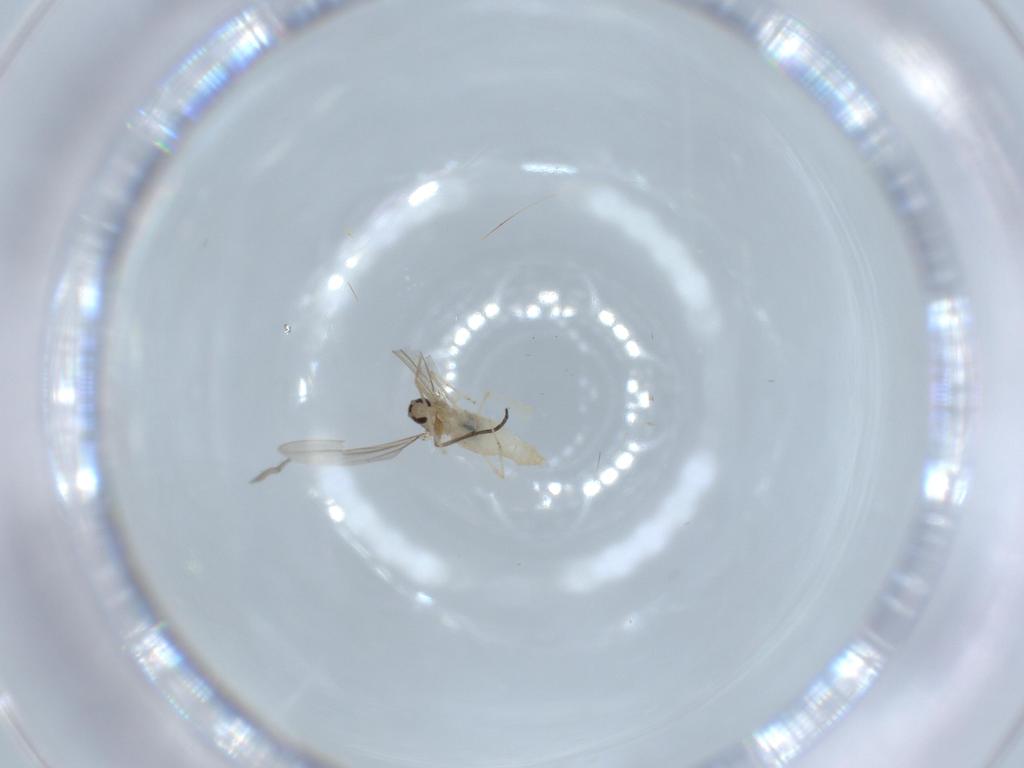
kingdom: Animalia
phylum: Arthropoda
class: Insecta
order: Diptera
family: Cecidomyiidae
